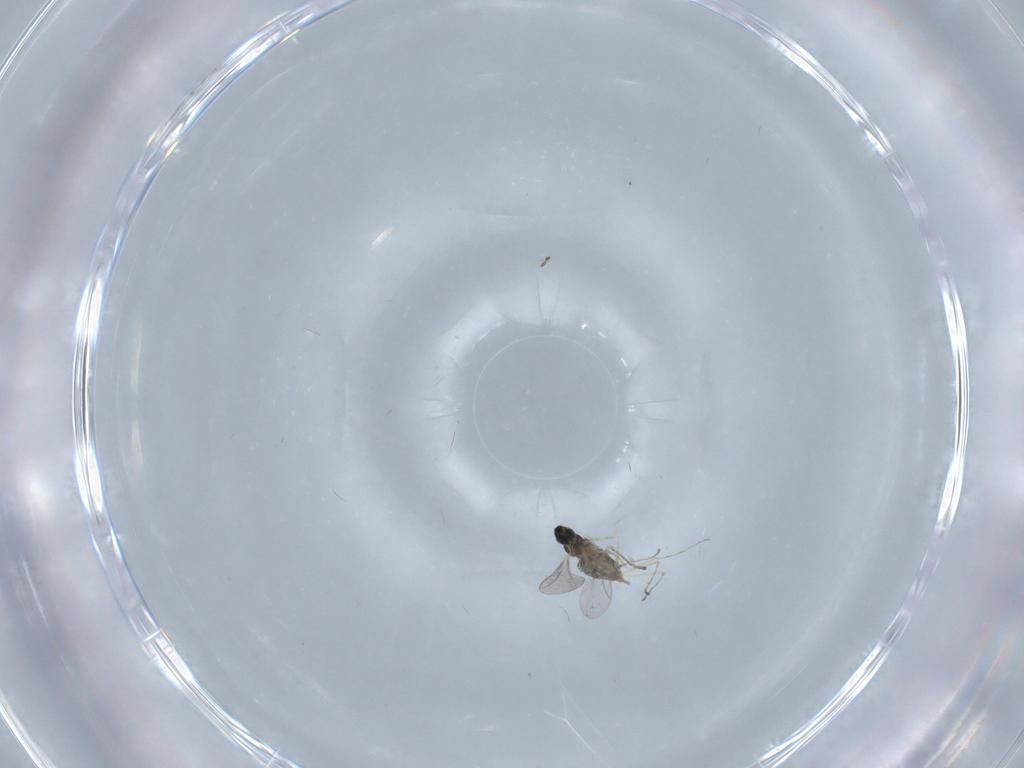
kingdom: Animalia
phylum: Arthropoda
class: Insecta
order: Diptera
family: Cecidomyiidae
